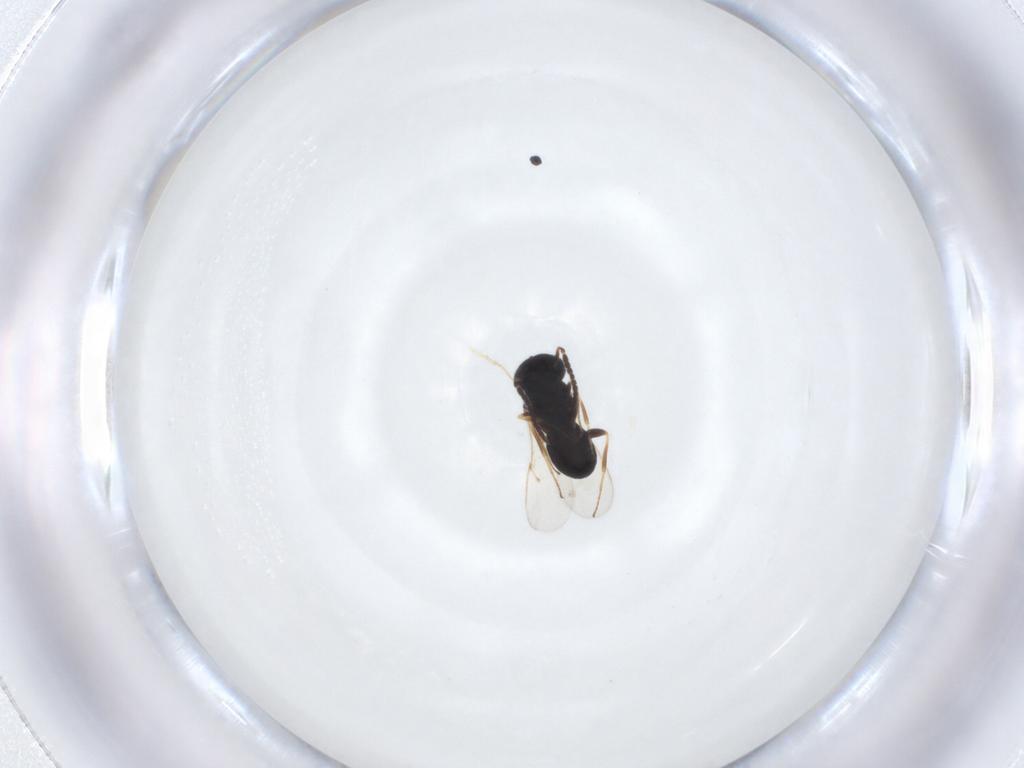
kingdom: Animalia
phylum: Arthropoda
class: Insecta
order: Hymenoptera
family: Scelionidae
